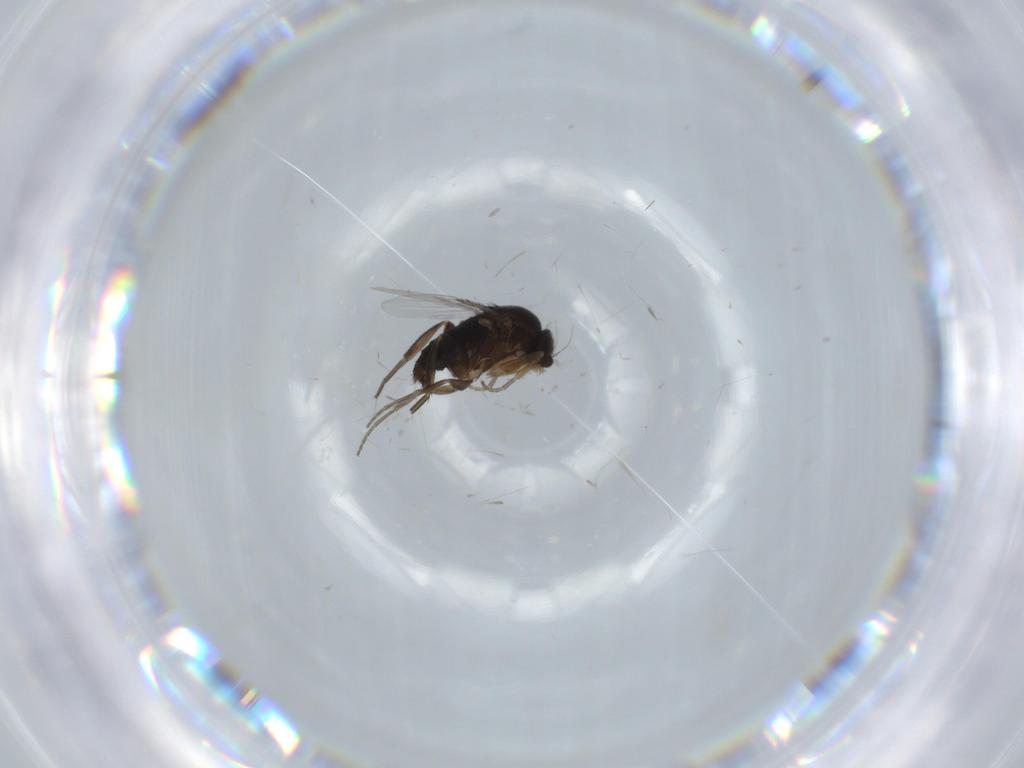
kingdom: Animalia
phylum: Arthropoda
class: Insecta
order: Diptera
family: Phoridae
